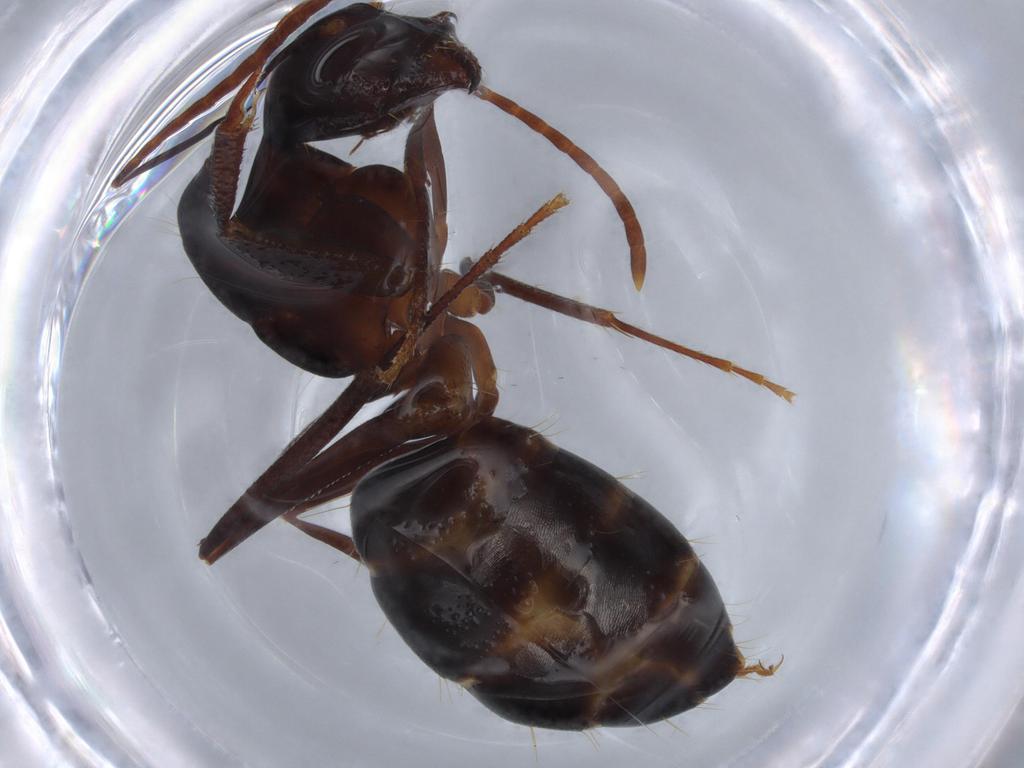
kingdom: Animalia
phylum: Arthropoda
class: Insecta
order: Hymenoptera
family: Formicidae
